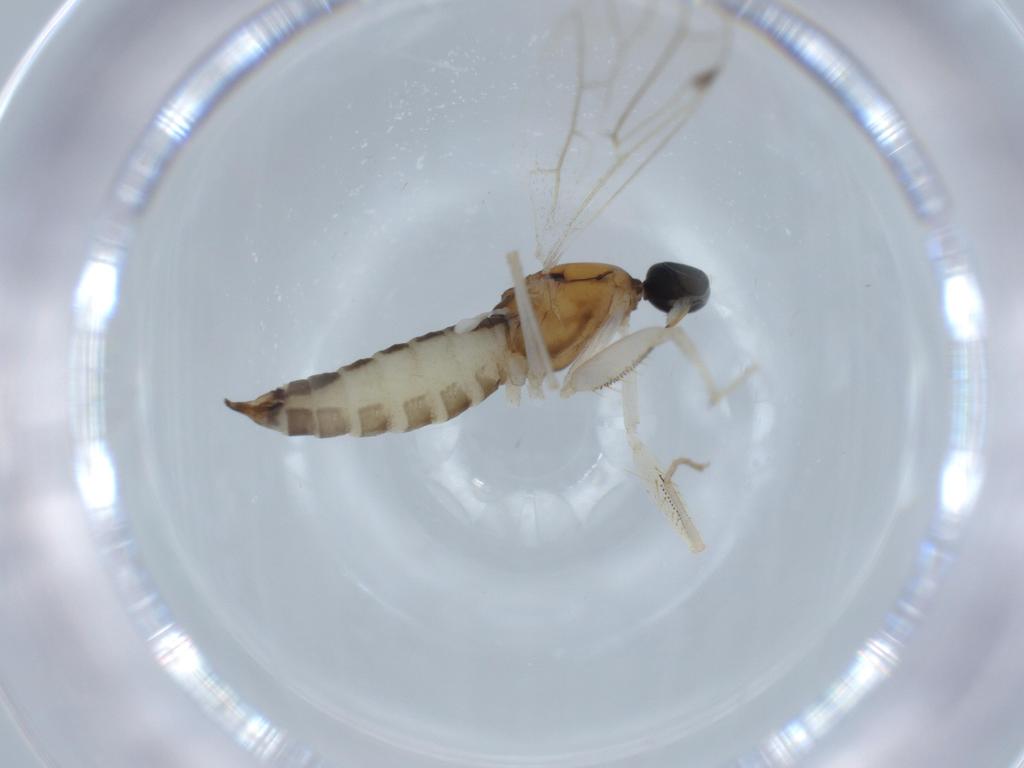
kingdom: Animalia
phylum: Arthropoda
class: Insecta
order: Diptera
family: Empididae
